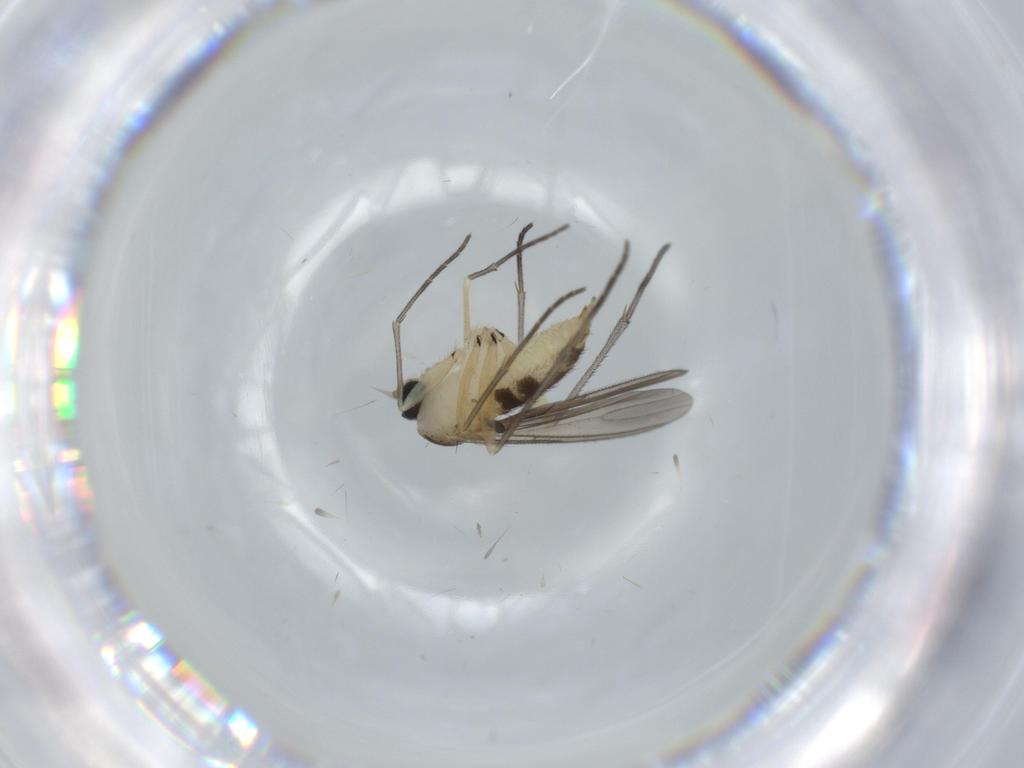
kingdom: Animalia
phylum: Arthropoda
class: Insecta
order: Diptera
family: Sciaridae
